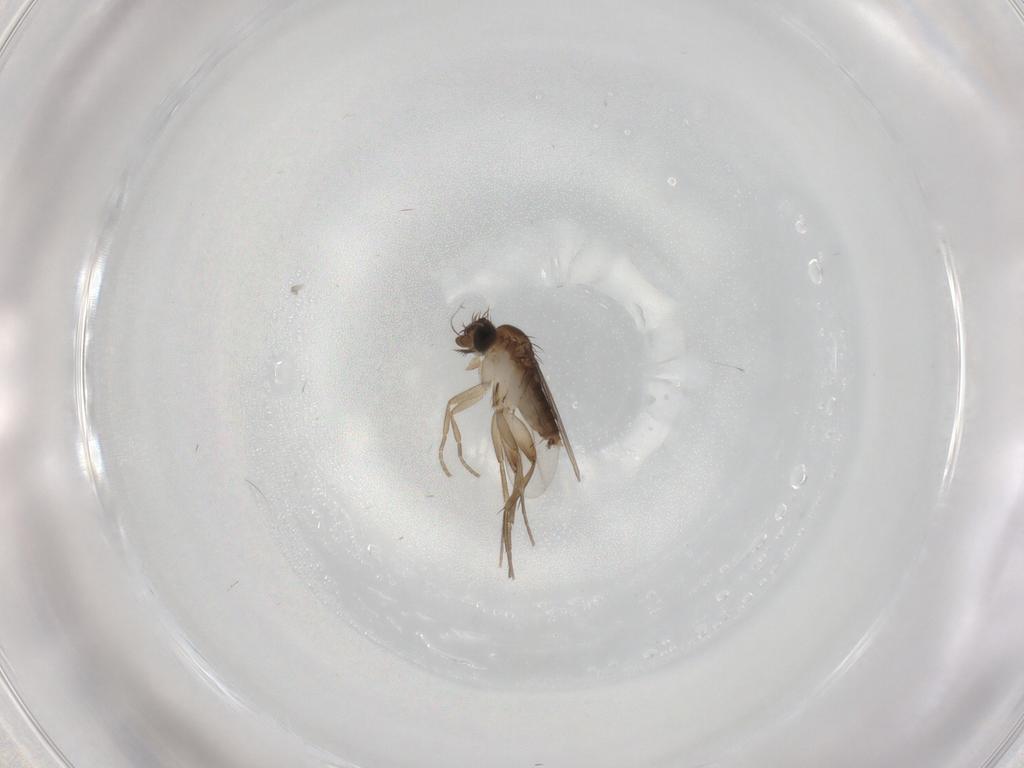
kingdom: Animalia
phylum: Arthropoda
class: Insecta
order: Diptera
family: Phoridae
